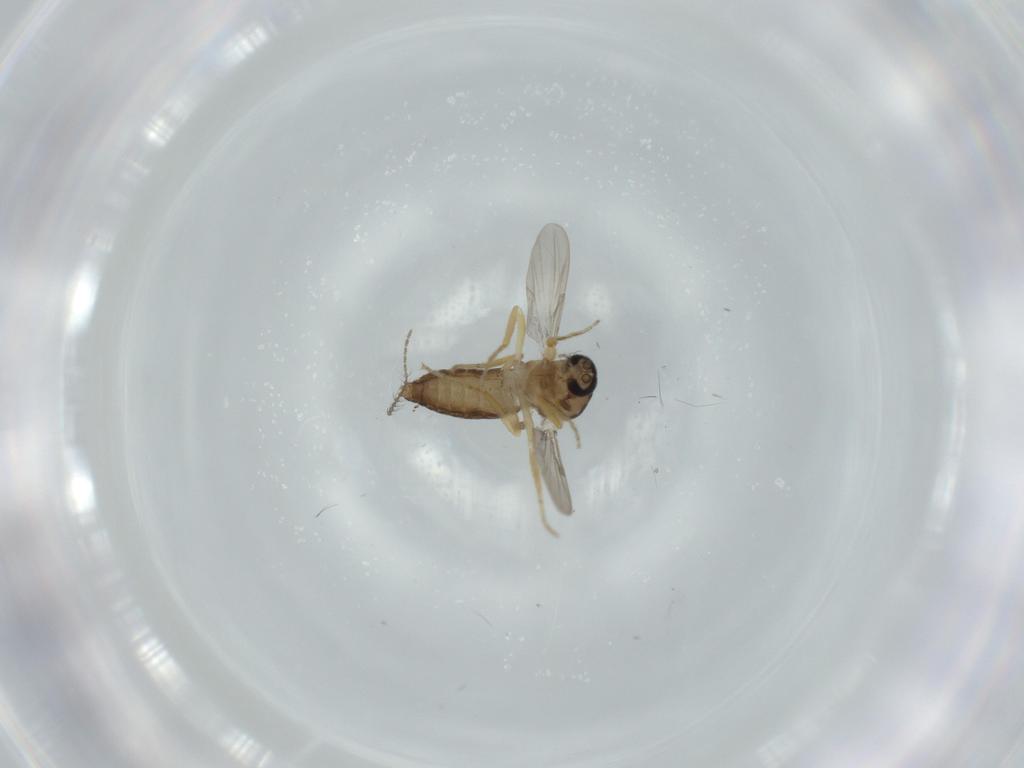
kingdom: Animalia
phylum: Arthropoda
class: Insecta
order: Diptera
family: Ceratopogonidae
